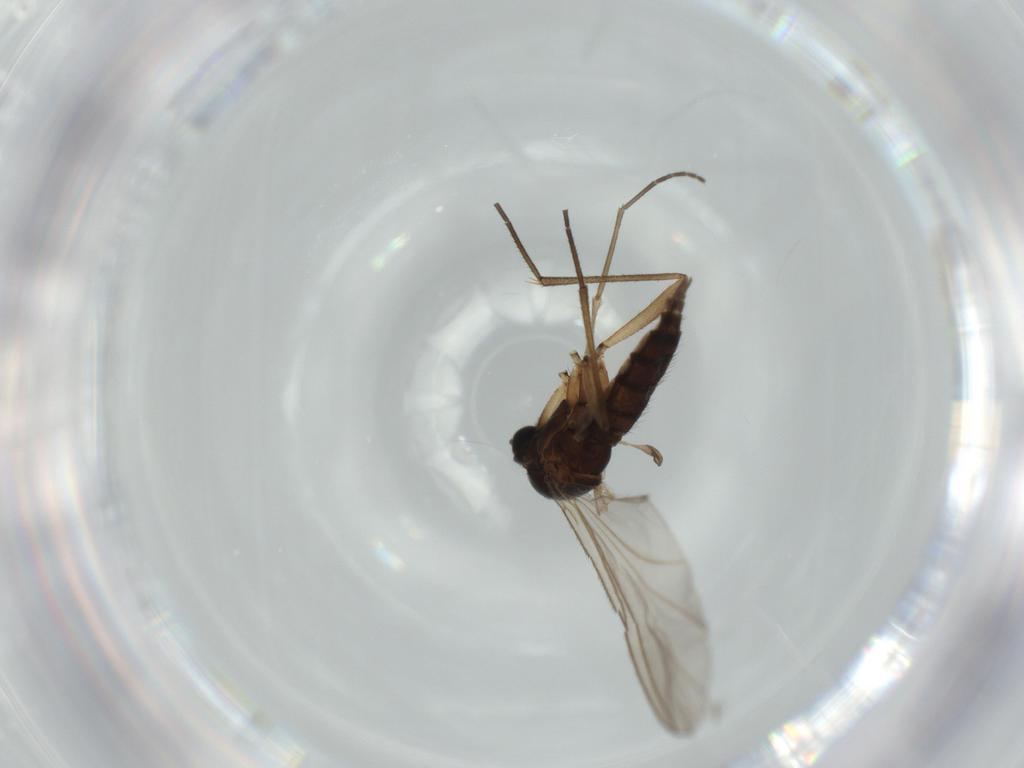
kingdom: Animalia
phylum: Arthropoda
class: Insecta
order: Diptera
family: Sciaridae
